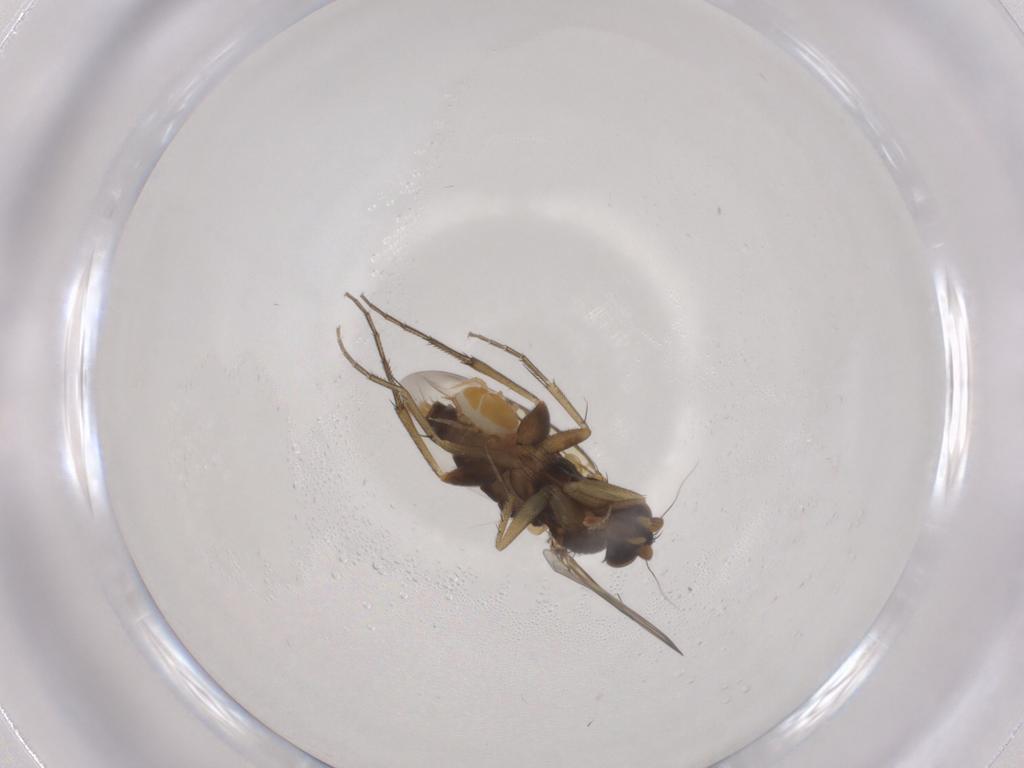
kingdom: Animalia
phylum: Arthropoda
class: Insecta
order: Diptera
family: Phoridae
